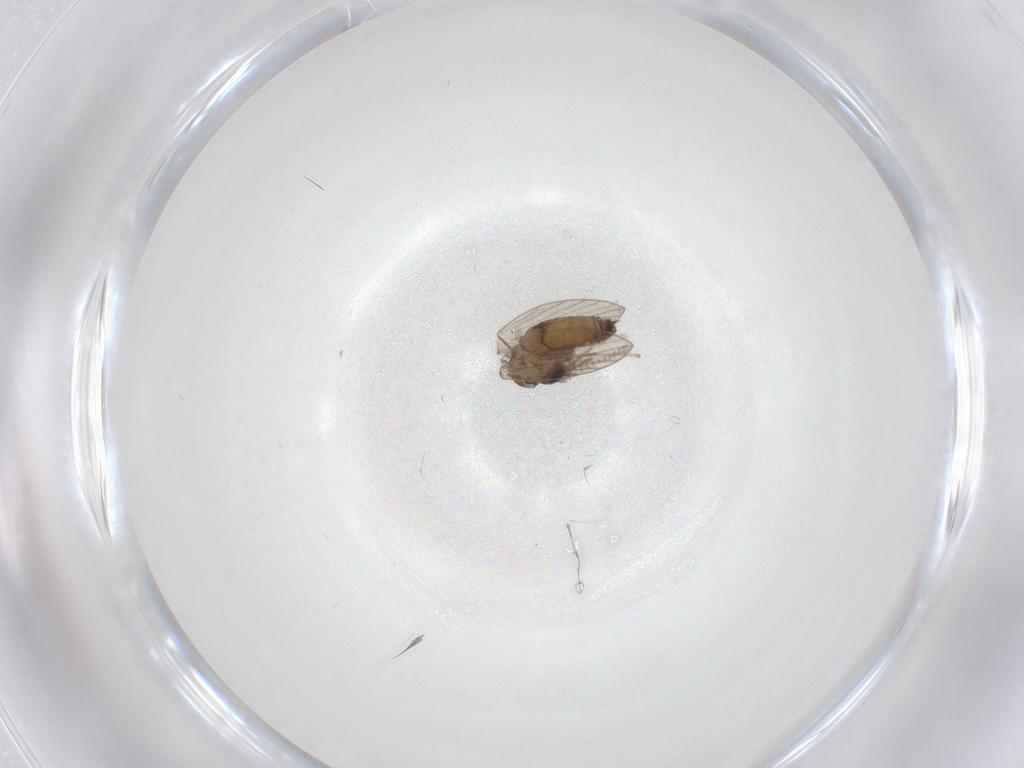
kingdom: Animalia
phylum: Arthropoda
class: Insecta
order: Diptera
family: Psychodidae
